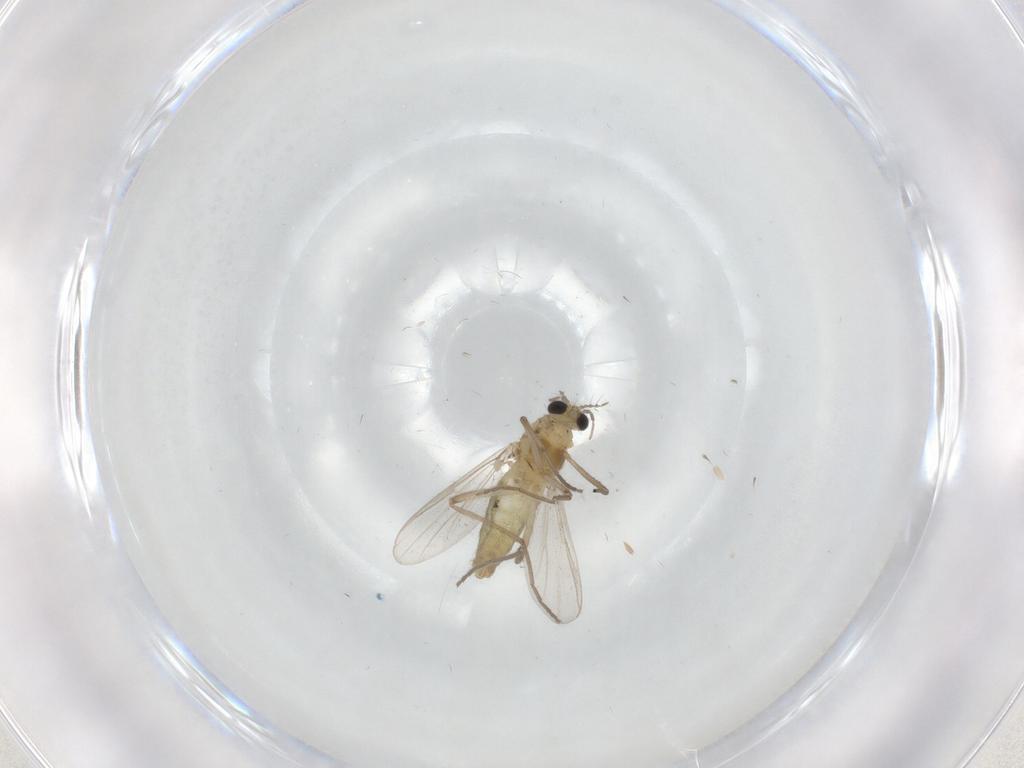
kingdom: Animalia
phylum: Arthropoda
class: Insecta
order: Diptera
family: Chironomidae
